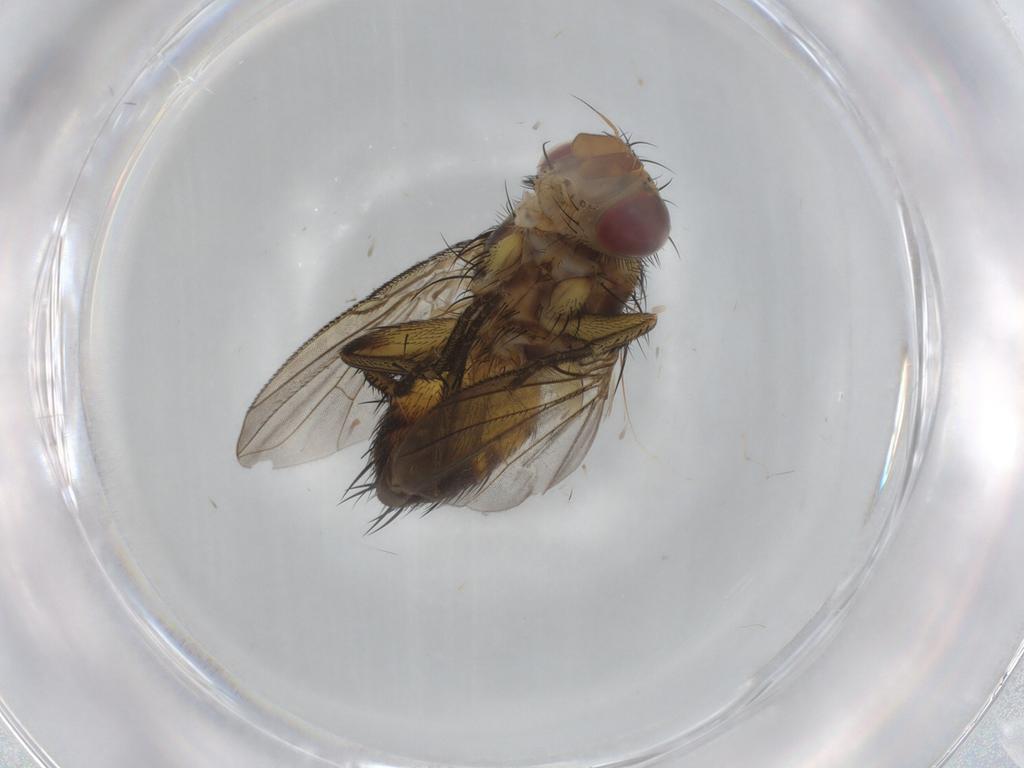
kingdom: Animalia
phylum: Arthropoda
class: Insecta
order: Diptera
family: Tachinidae
